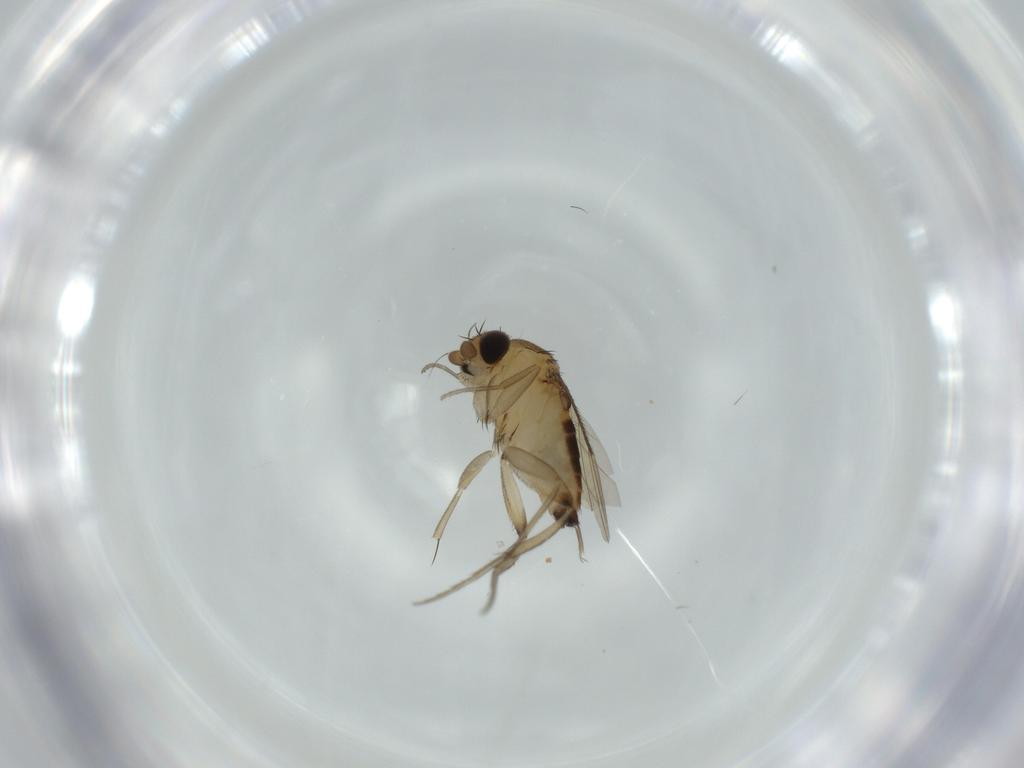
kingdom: Animalia
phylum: Arthropoda
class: Insecta
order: Diptera
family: Phoridae
